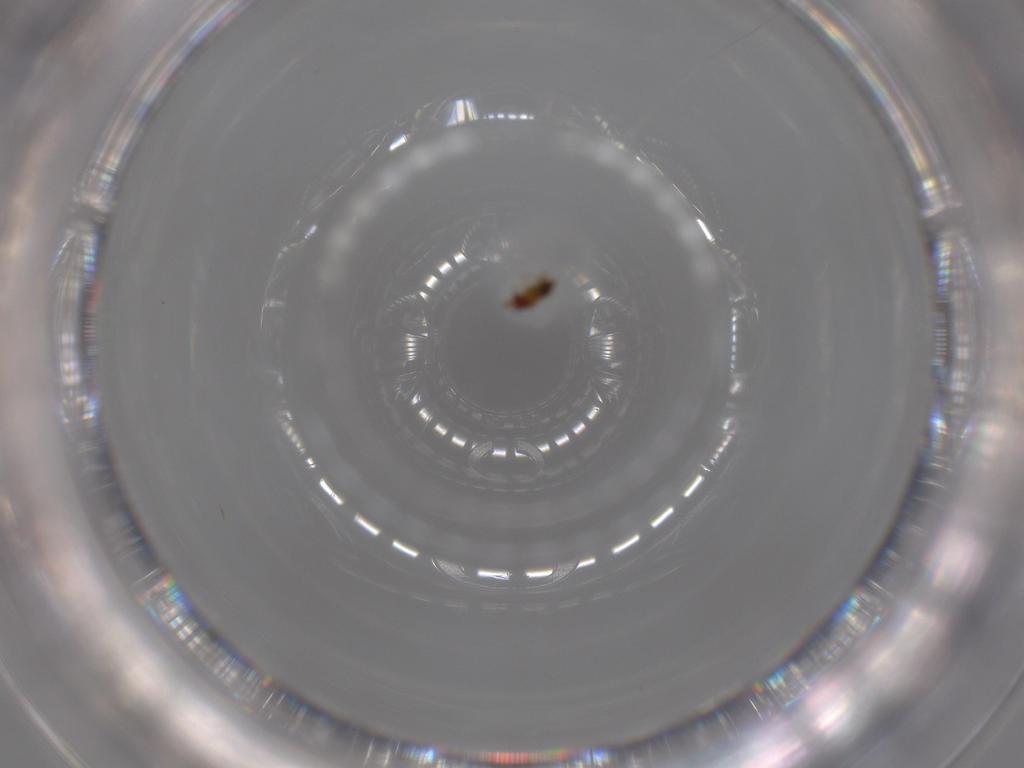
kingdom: Animalia
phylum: Arthropoda
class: Insecta
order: Hymenoptera
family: Trichogrammatidae
